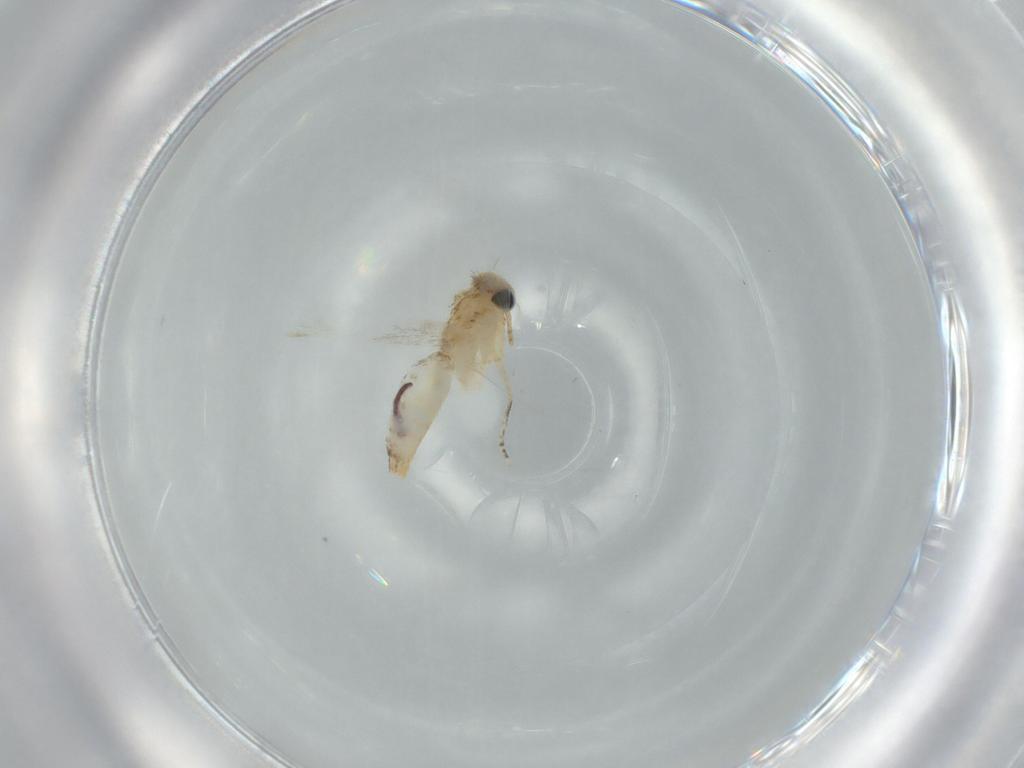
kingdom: Animalia
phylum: Arthropoda
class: Insecta
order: Lepidoptera
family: Bucculatricidae
